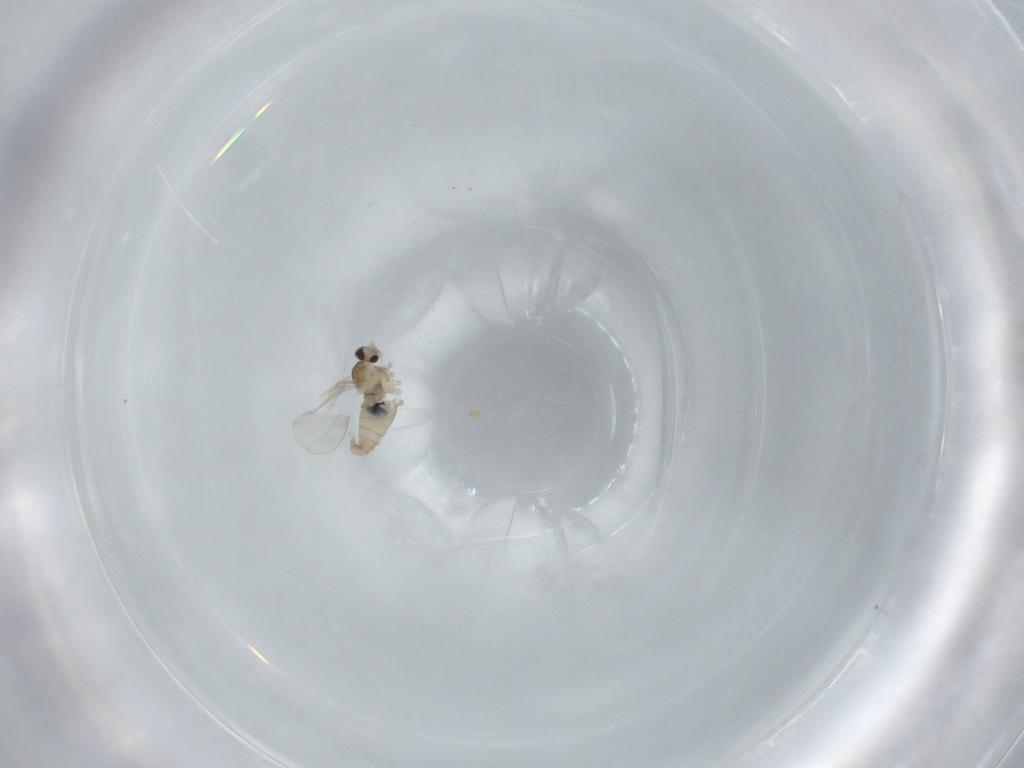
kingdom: Animalia
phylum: Arthropoda
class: Insecta
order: Diptera
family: Cecidomyiidae
